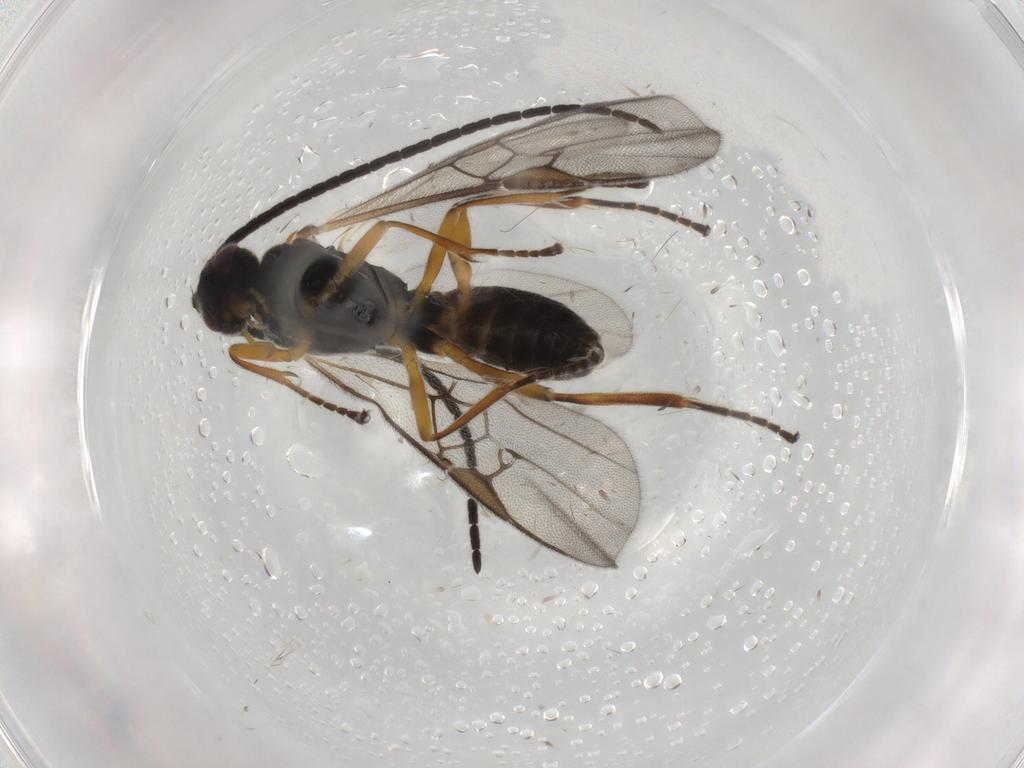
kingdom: Animalia
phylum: Arthropoda
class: Insecta
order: Hymenoptera
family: Braconidae
